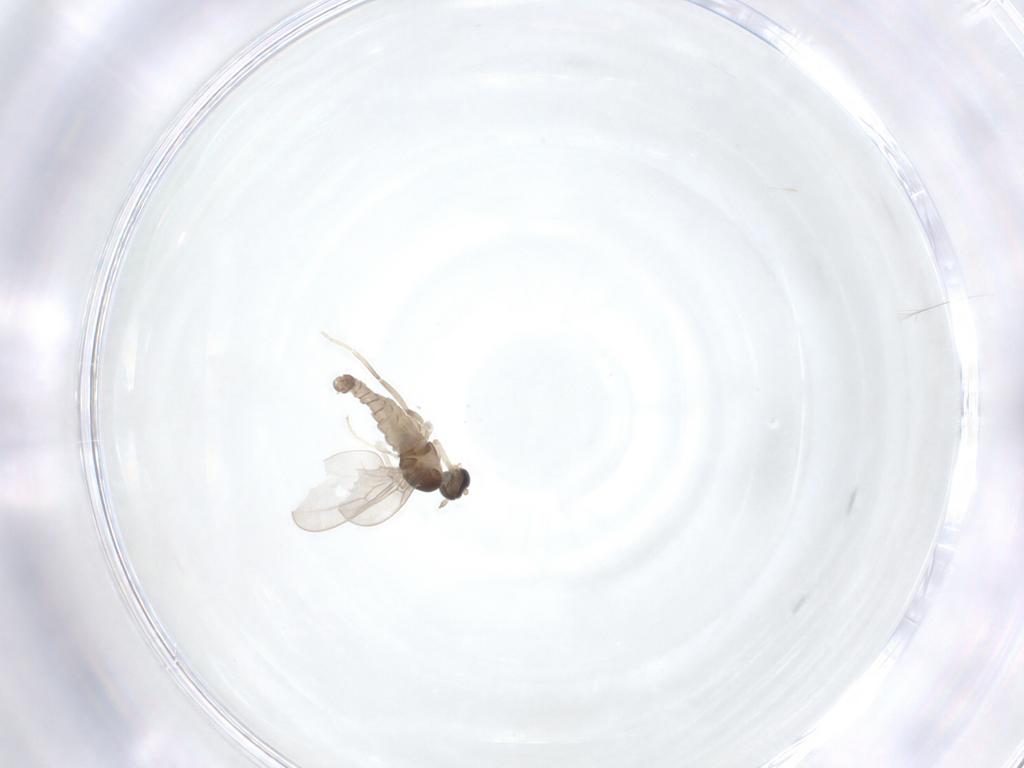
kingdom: Animalia
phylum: Arthropoda
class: Insecta
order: Diptera
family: Cecidomyiidae
